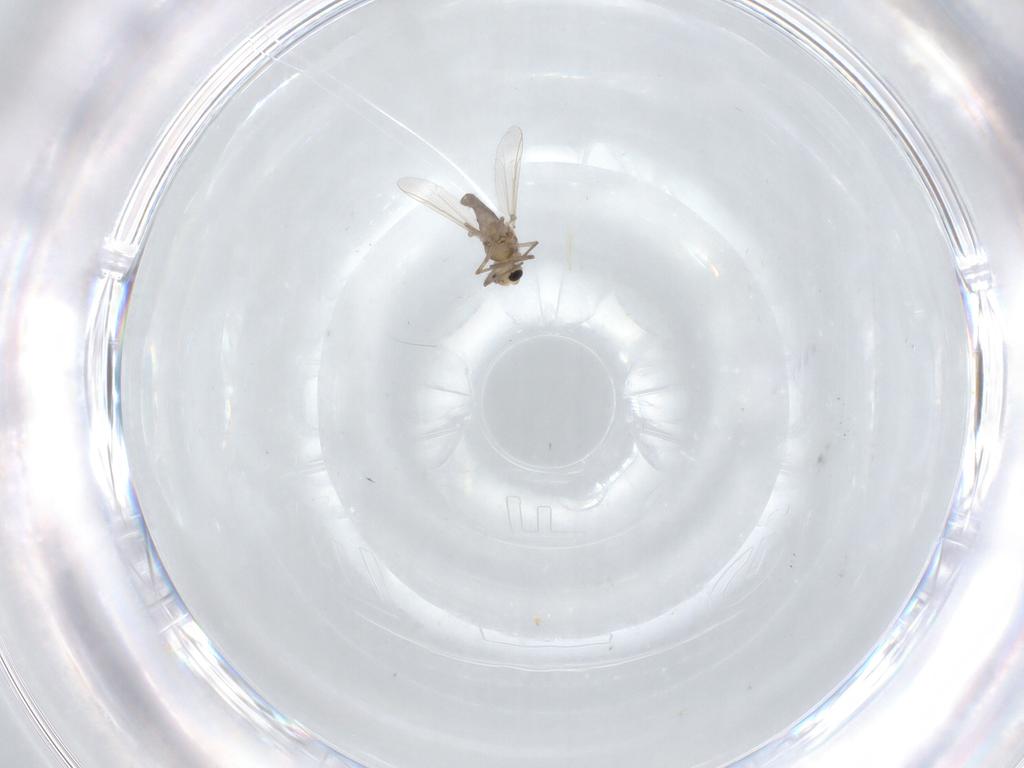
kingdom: Animalia
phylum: Arthropoda
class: Insecta
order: Diptera
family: Cecidomyiidae
